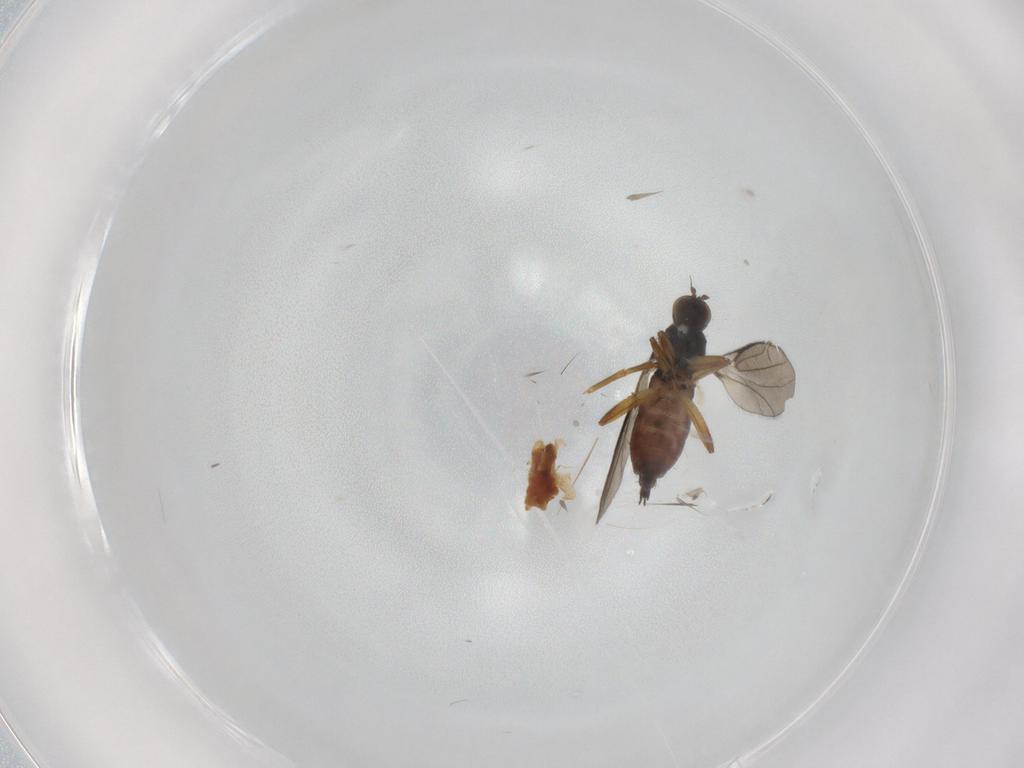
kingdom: Animalia
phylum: Arthropoda
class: Insecta
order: Diptera
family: Hybotidae
